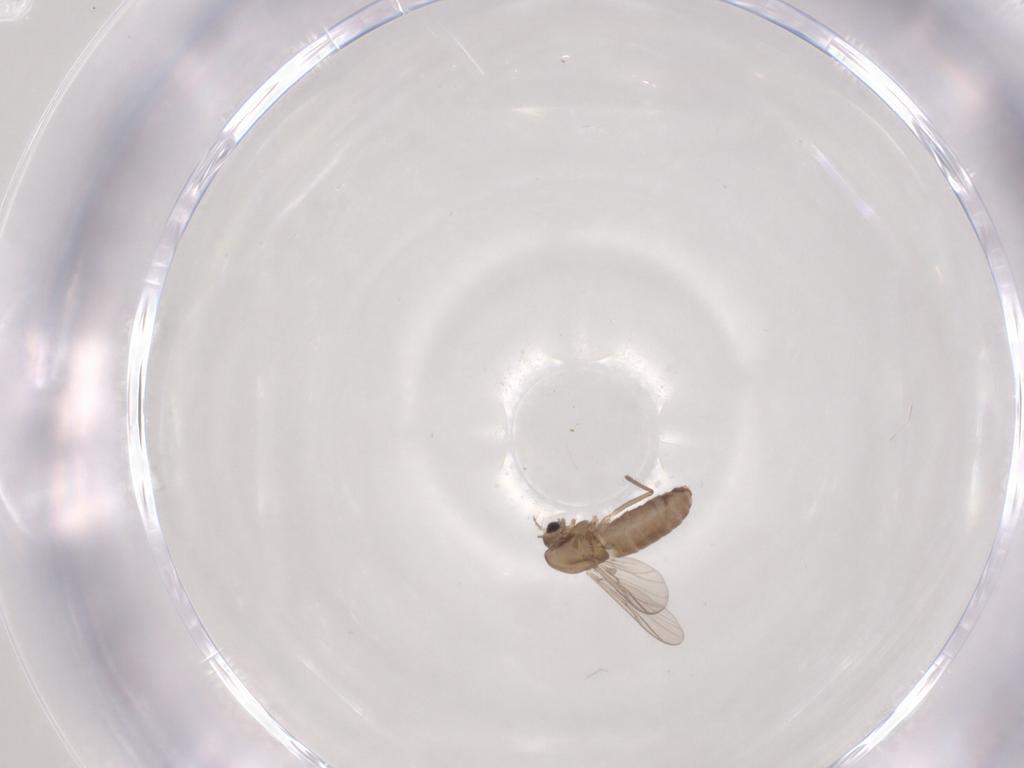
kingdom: Animalia
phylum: Arthropoda
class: Insecta
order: Diptera
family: Chironomidae
